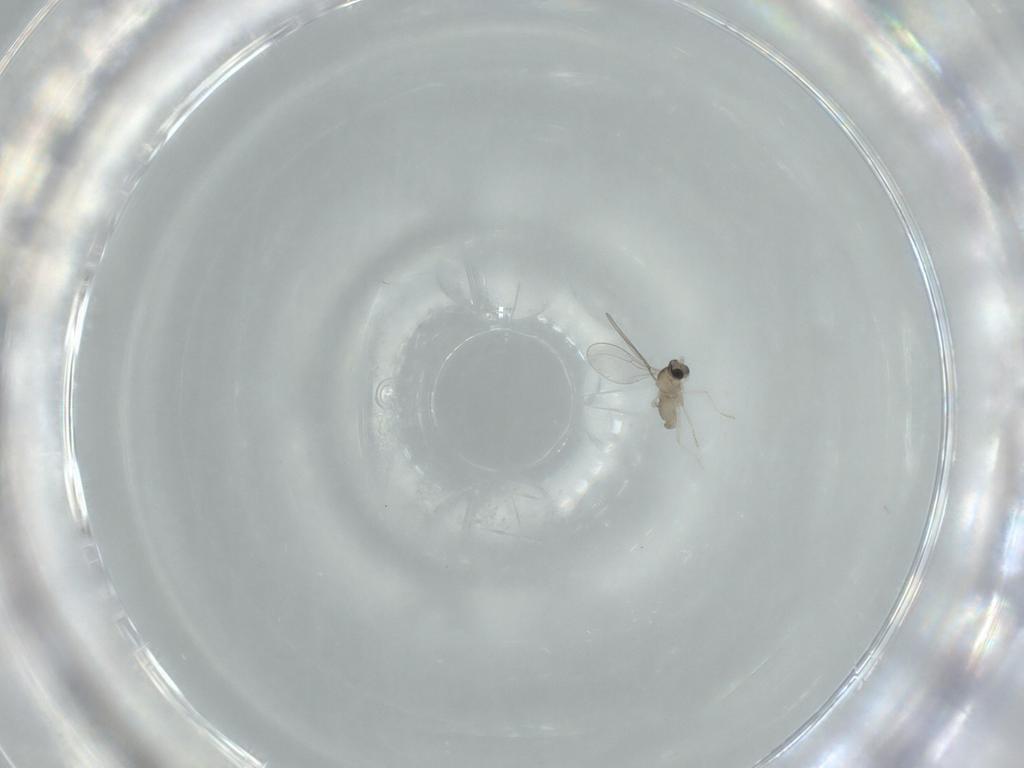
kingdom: Animalia
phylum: Arthropoda
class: Insecta
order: Diptera
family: Cecidomyiidae
